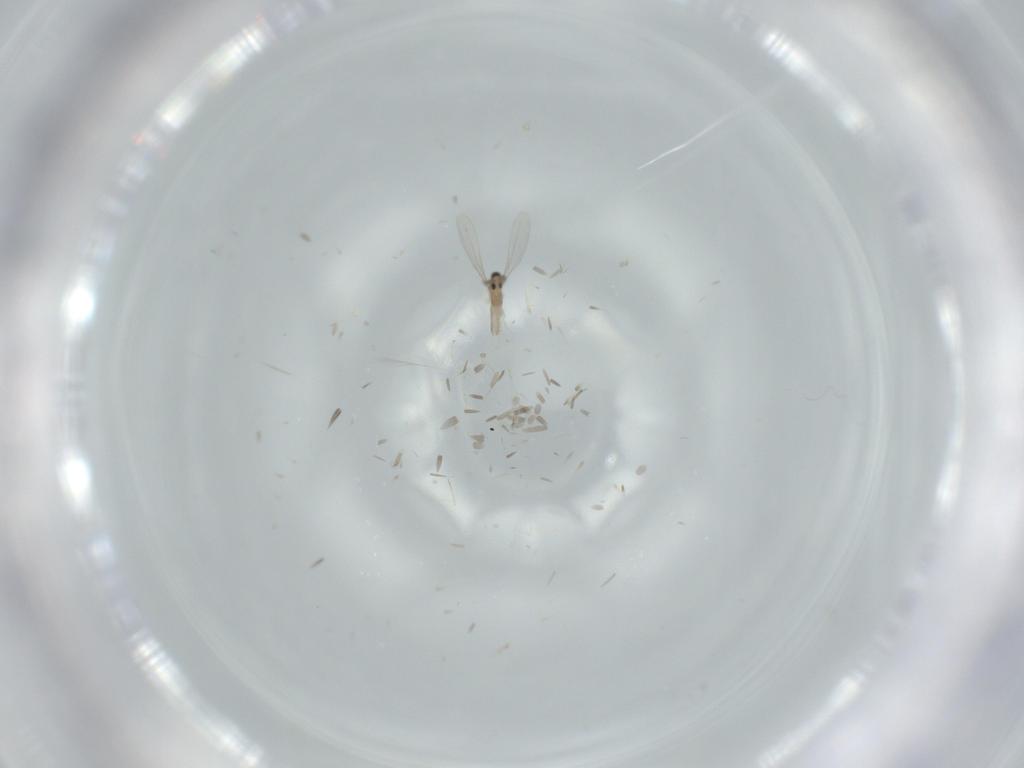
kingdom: Animalia
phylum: Arthropoda
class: Insecta
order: Diptera
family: Cecidomyiidae
